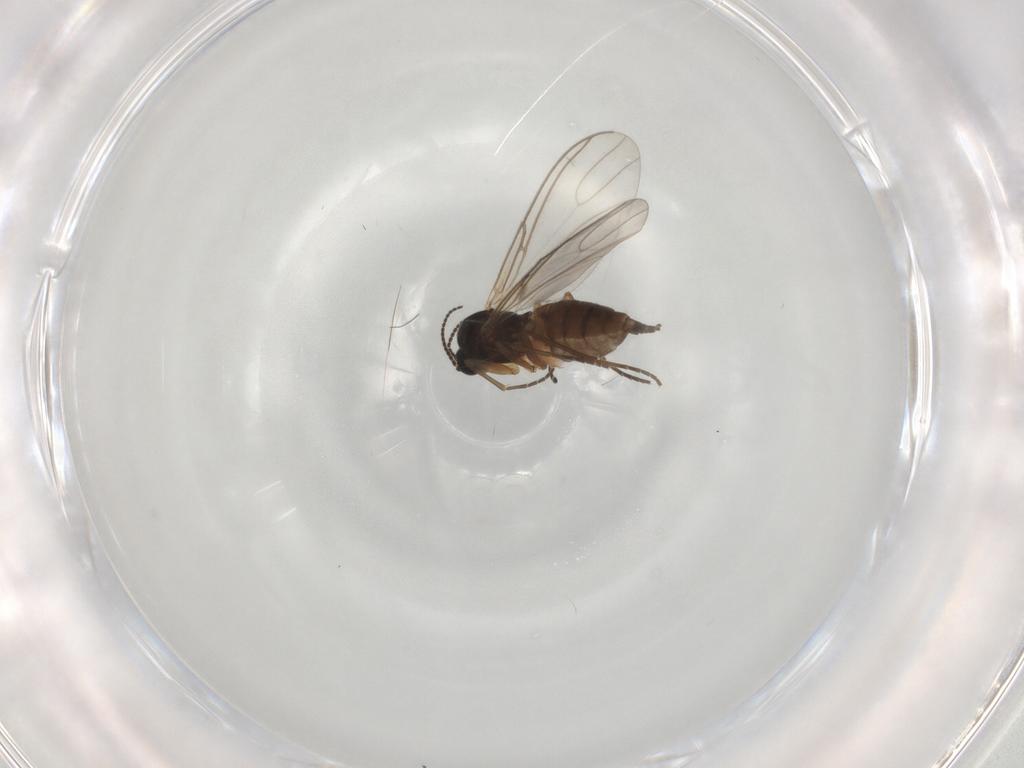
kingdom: Animalia
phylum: Arthropoda
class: Insecta
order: Diptera
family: Sciaridae
